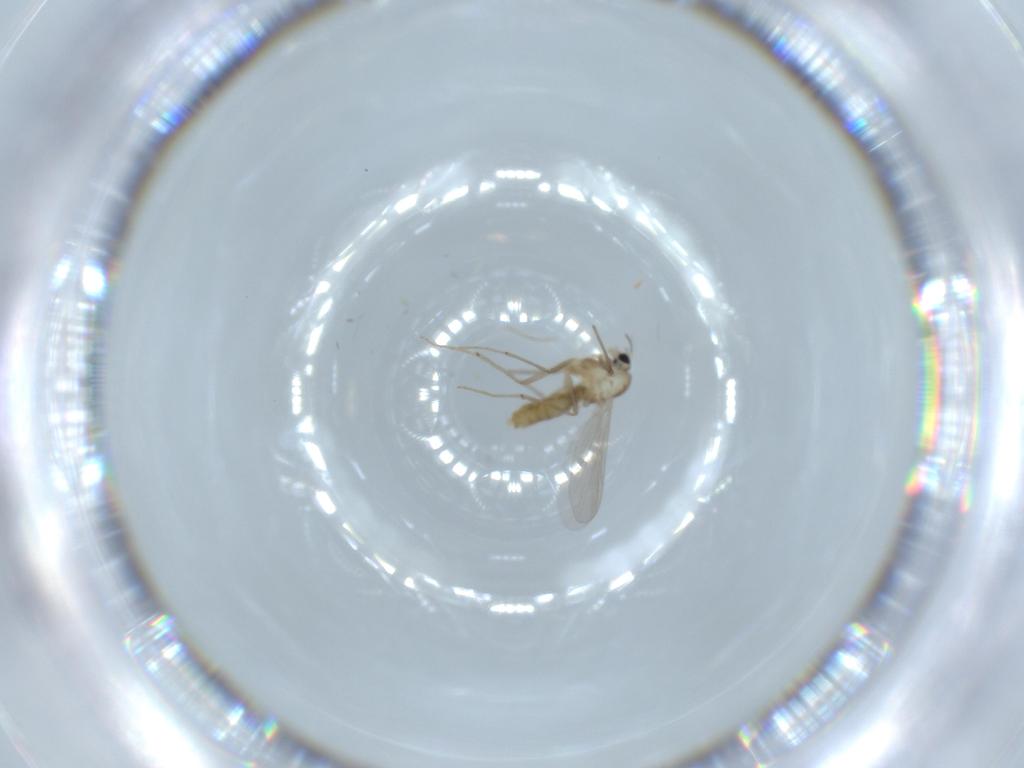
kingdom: Animalia
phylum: Arthropoda
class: Insecta
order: Diptera
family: Chironomidae
